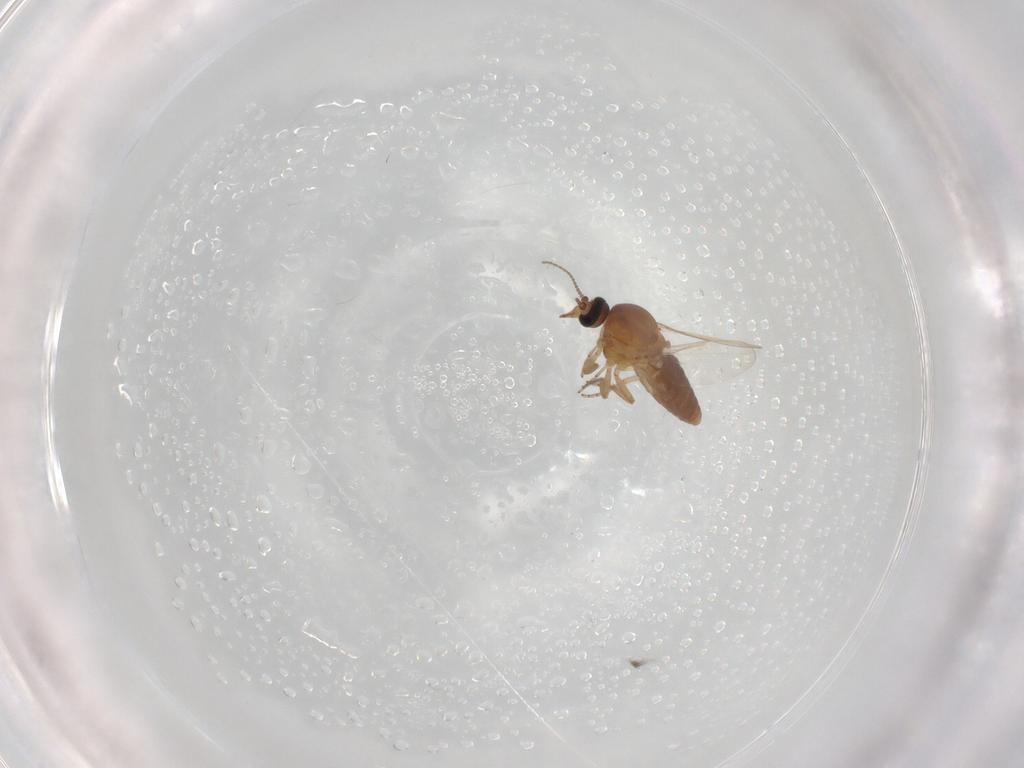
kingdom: Animalia
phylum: Arthropoda
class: Insecta
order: Diptera
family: Ceratopogonidae
